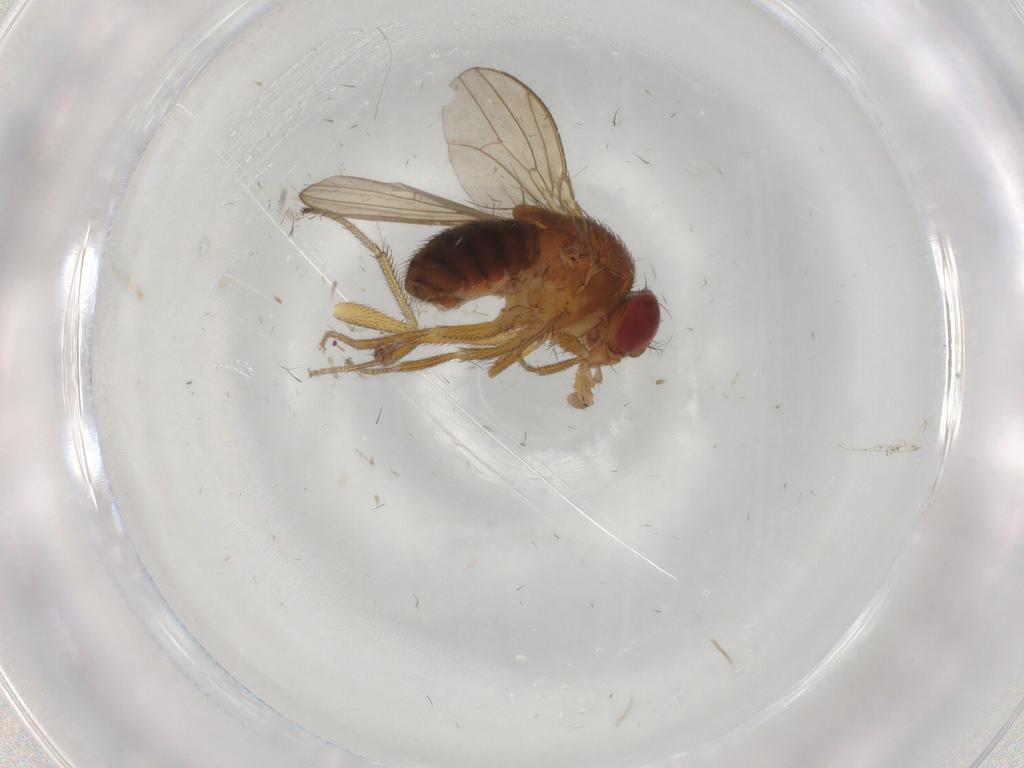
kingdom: Animalia
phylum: Arthropoda
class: Insecta
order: Diptera
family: Drosophilidae
